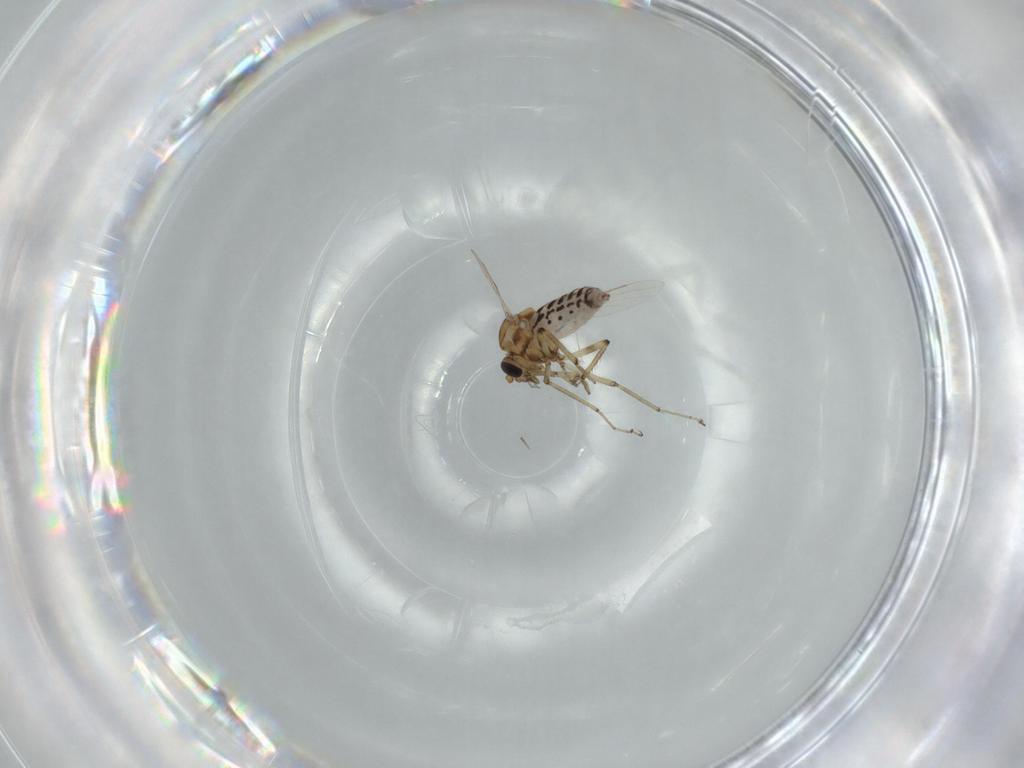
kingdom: Animalia
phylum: Arthropoda
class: Insecta
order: Diptera
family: Ceratopogonidae
